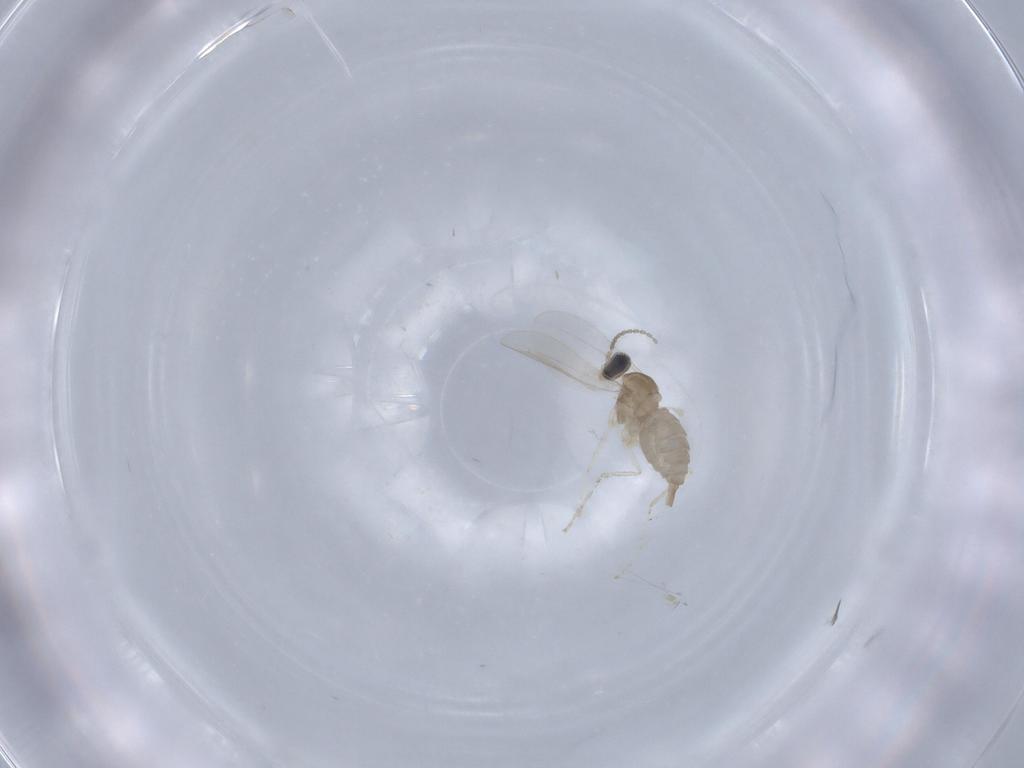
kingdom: Animalia
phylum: Arthropoda
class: Insecta
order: Diptera
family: Cecidomyiidae
